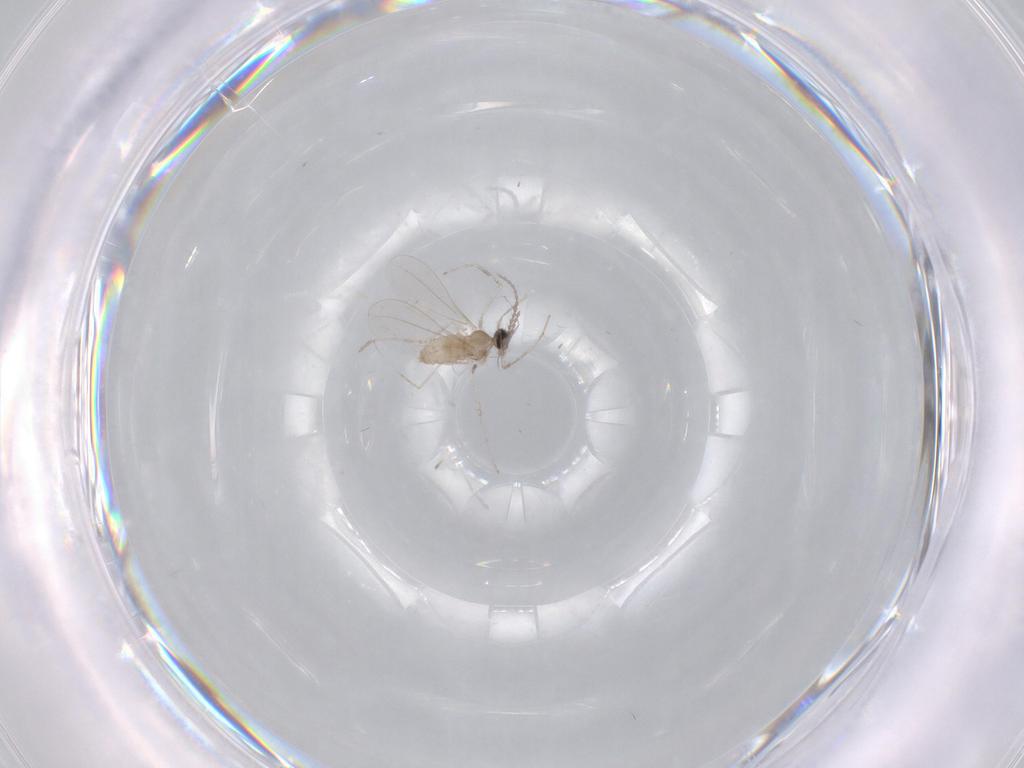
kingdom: Animalia
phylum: Arthropoda
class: Insecta
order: Diptera
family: Cecidomyiidae
